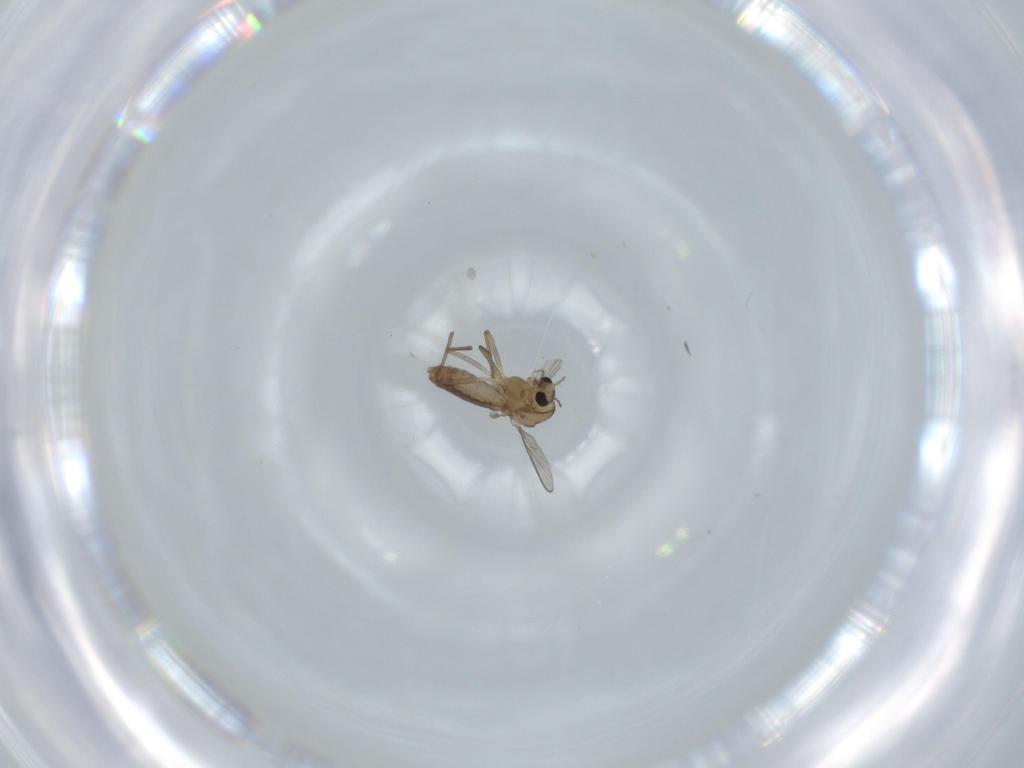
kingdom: Animalia
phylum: Arthropoda
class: Insecta
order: Diptera
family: Chironomidae
